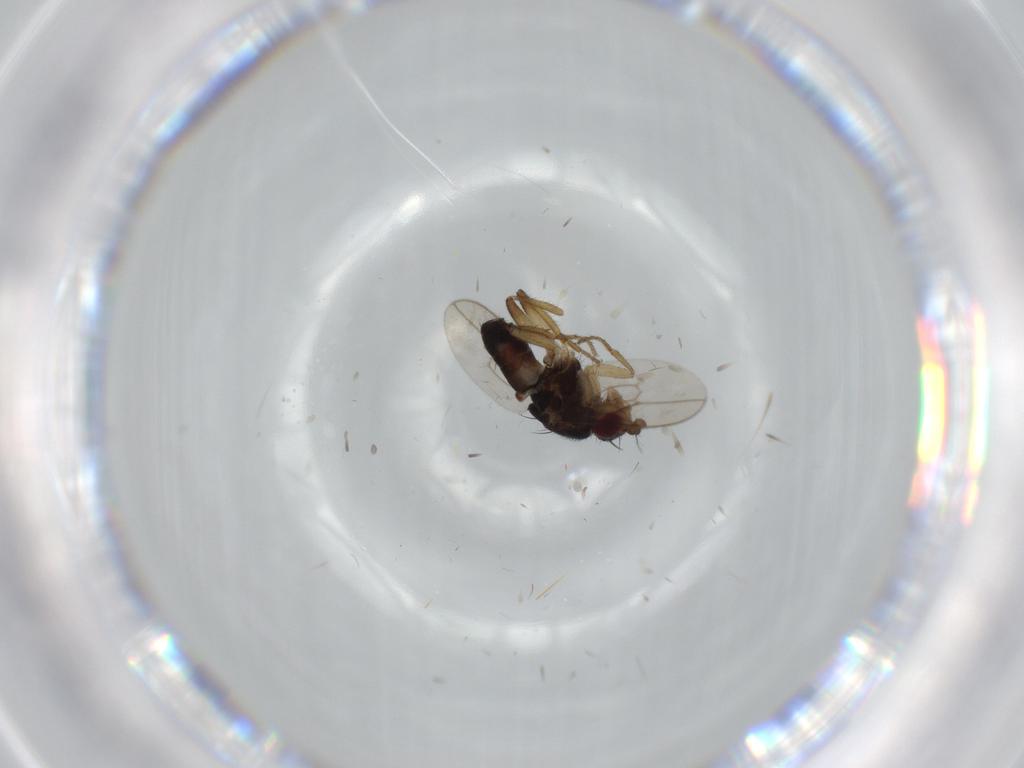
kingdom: Animalia
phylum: Arthropoda
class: Insecta
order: Diptera
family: Sphaeroceridae
